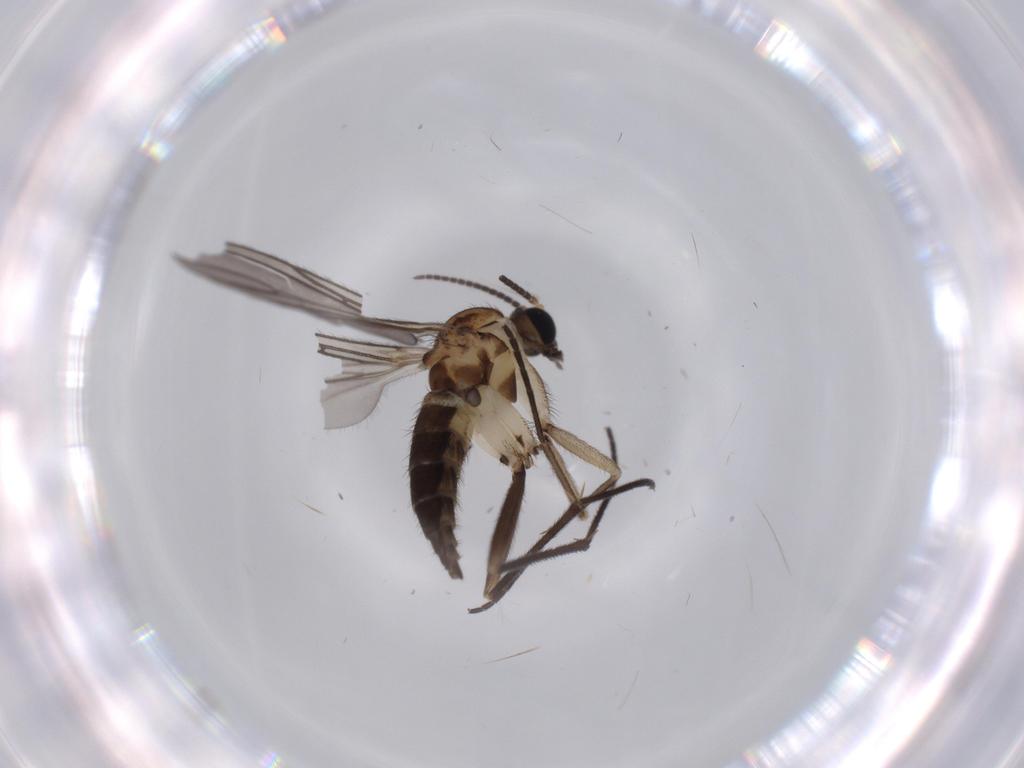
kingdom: Animalia
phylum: Arthropoda
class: Insecta
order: Diptera
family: Sciaridae
